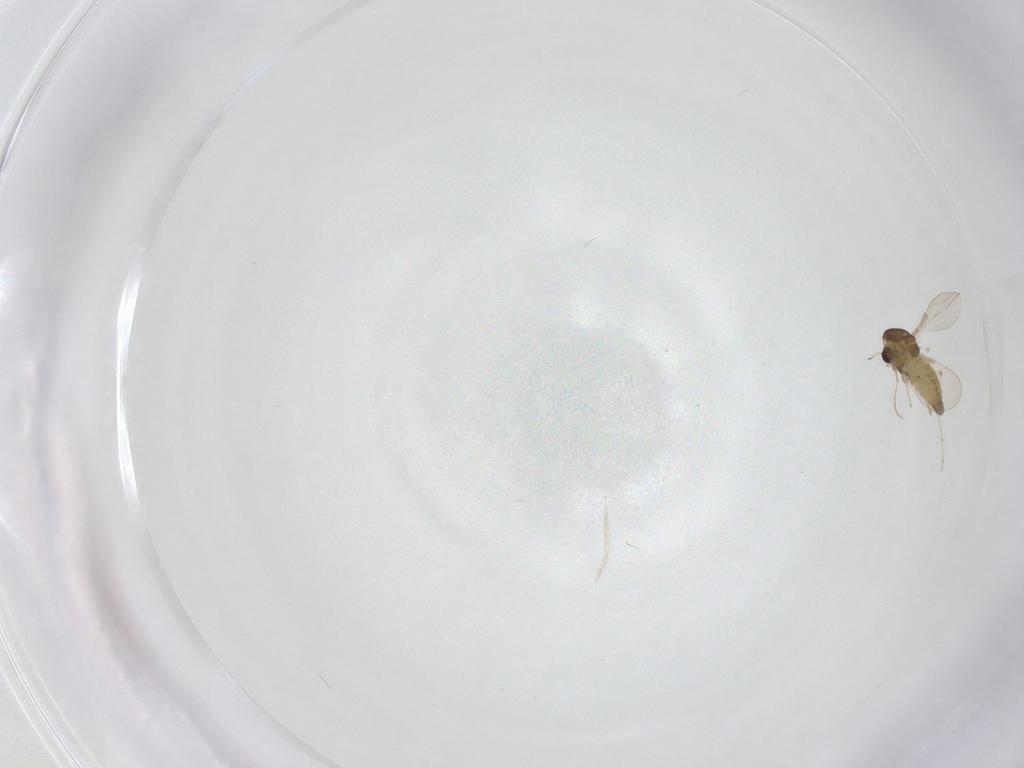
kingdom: Animalia
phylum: Arthropoda
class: Insecta
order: Diptera
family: Chironomidae
